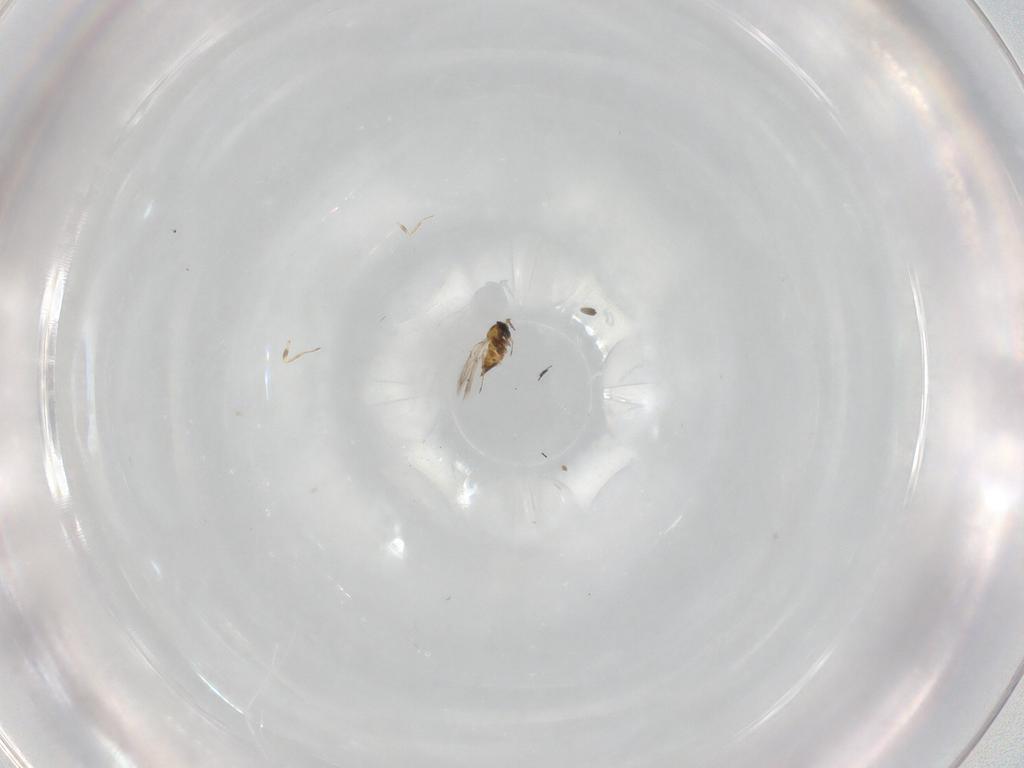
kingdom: Animalia
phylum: Arthropoda
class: Insecta
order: Hymenoptera
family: Trichogrammatidae
